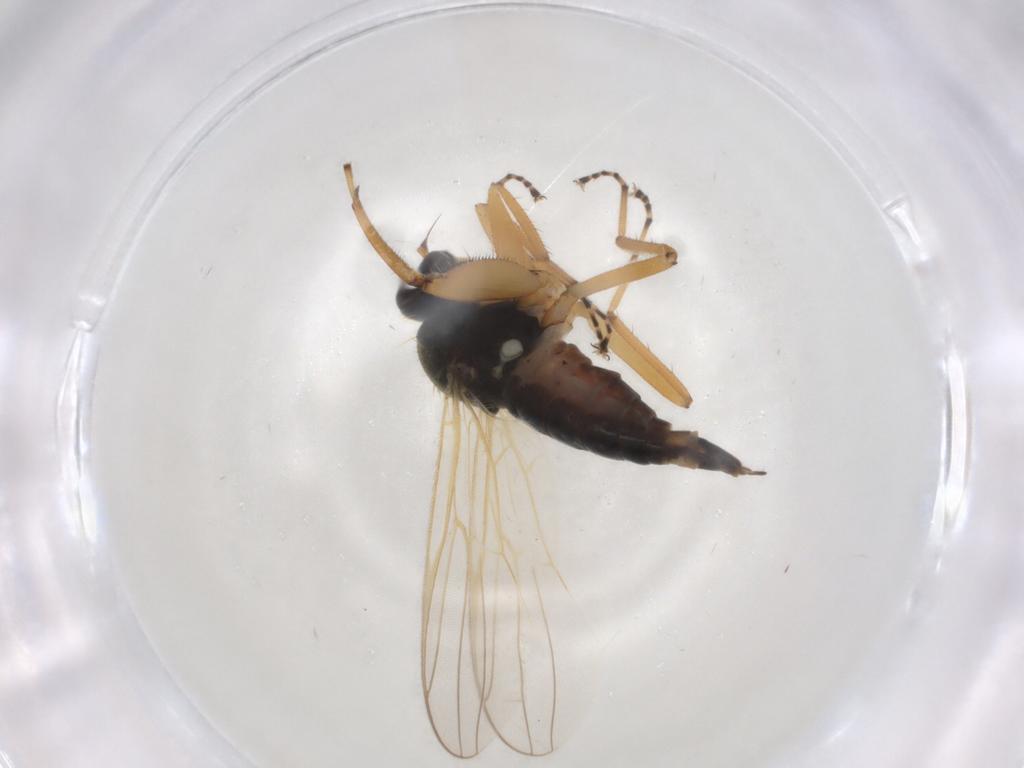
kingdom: Animalia
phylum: Arthropoda
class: Insecta
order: Diptera
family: Hybotidae
